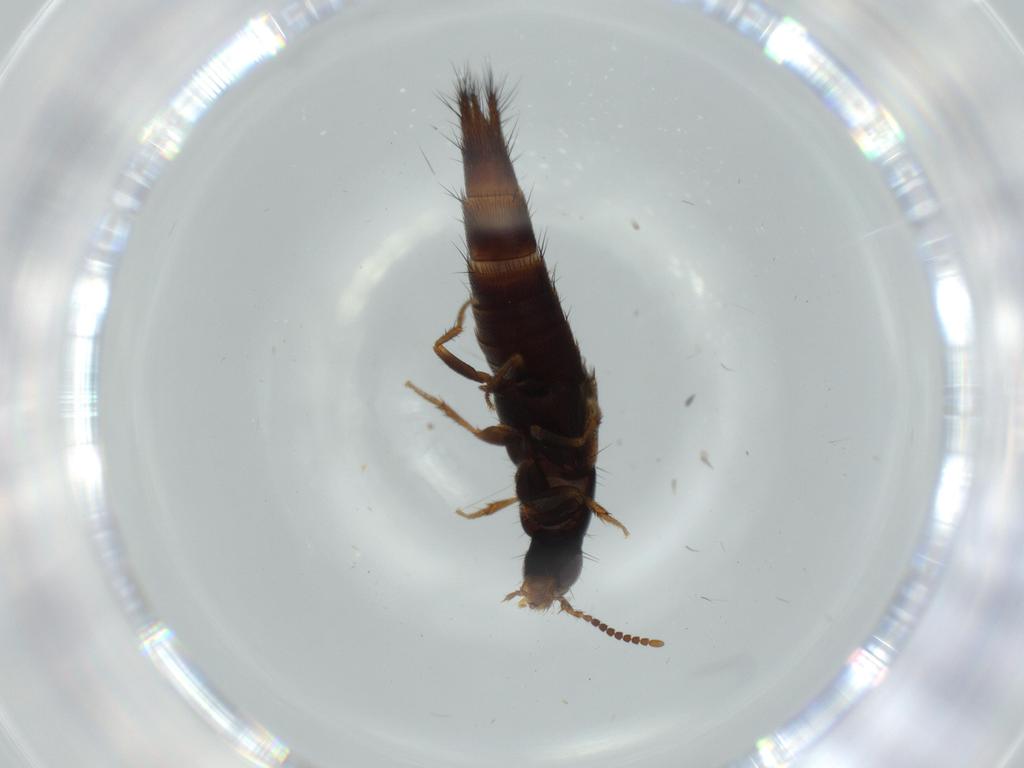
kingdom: Animalia
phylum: Arthropoda
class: Insecta
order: Coleoptera
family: Staphylinidae
